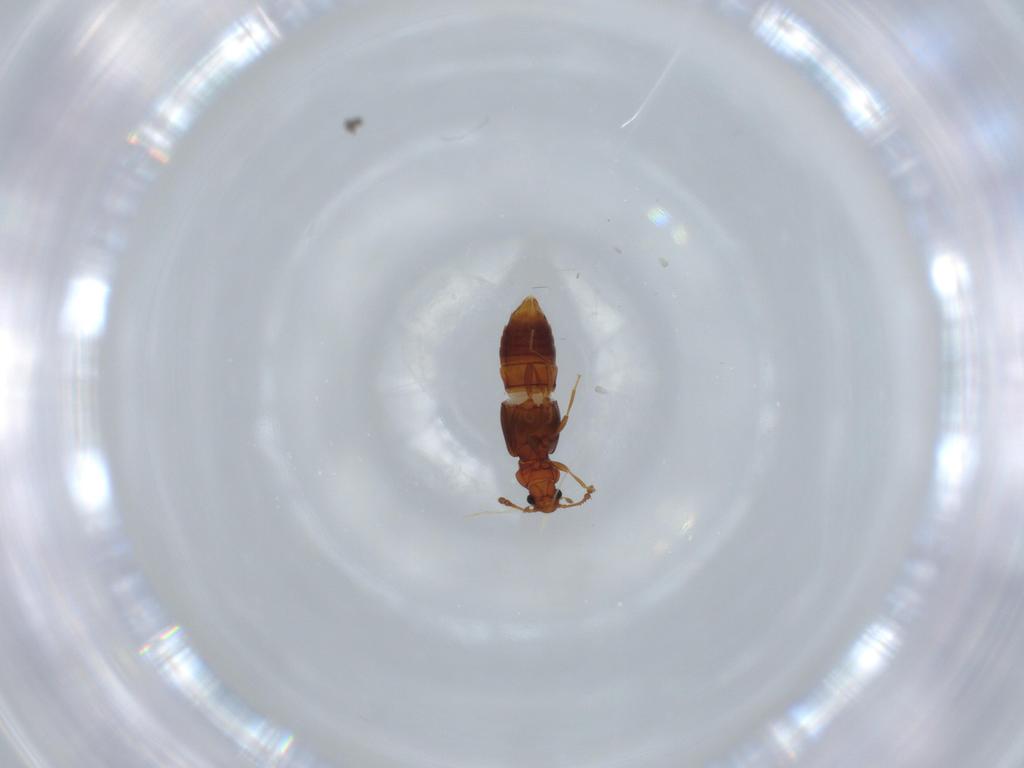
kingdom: Animalia
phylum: Arthropoda
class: Insecta
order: Coleoptera
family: Staphylinidae
